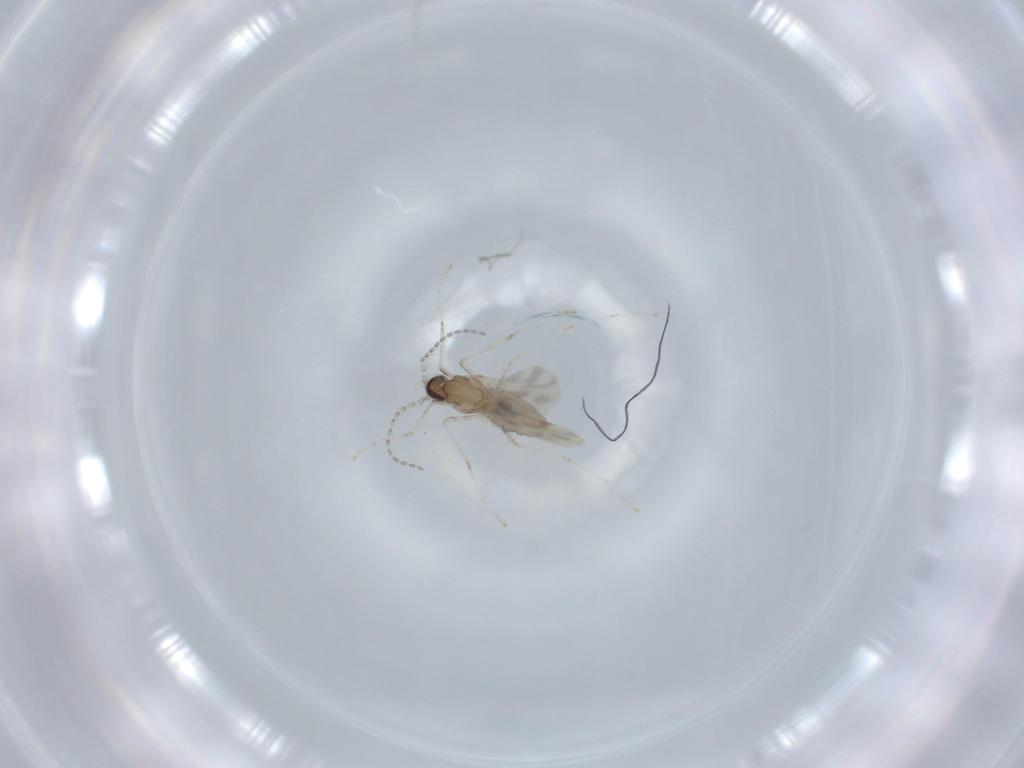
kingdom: Animalia
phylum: Arthropoda
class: Insecta
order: Diptera
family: Cecidomyiidae
